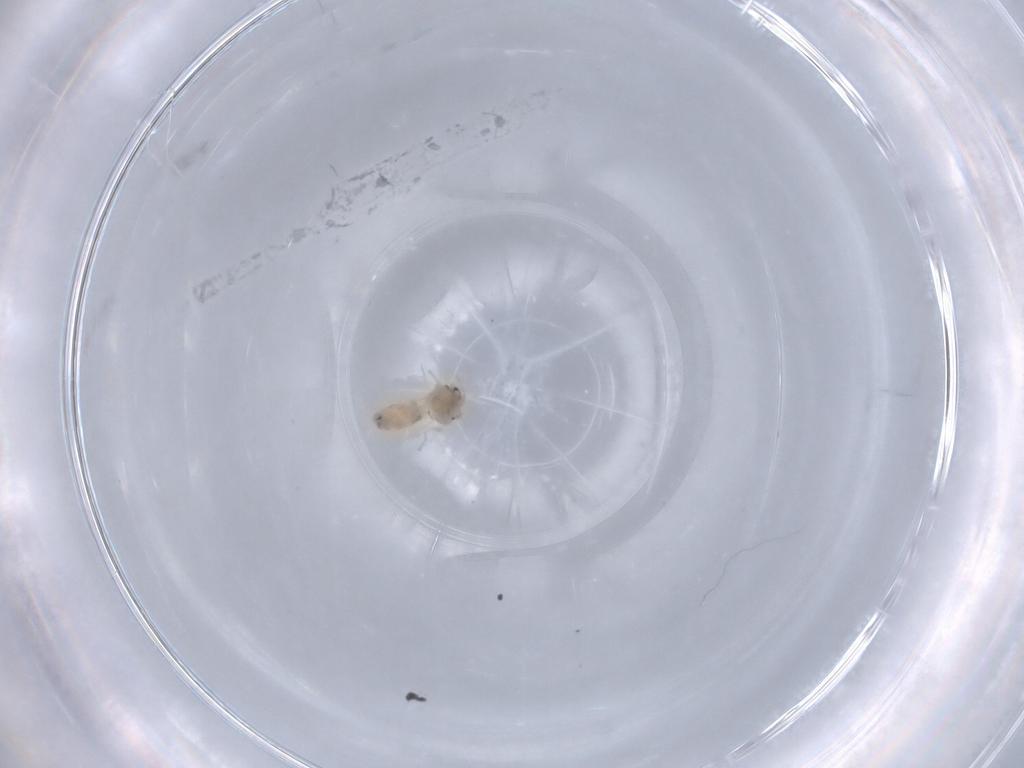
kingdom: Animalia
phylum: Arthropoda
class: Insecta
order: Hemiptera
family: Aleyrodidae
